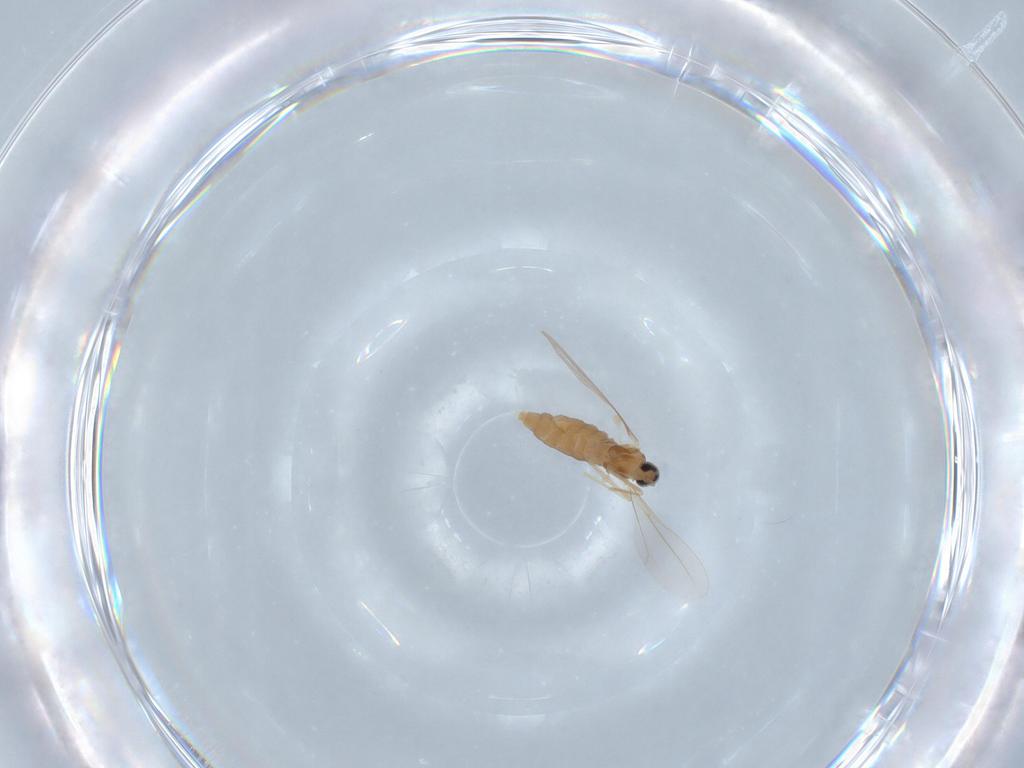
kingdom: Animalia
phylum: Arthropoda
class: Insecta
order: Diptera
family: Cecidomyiidae
